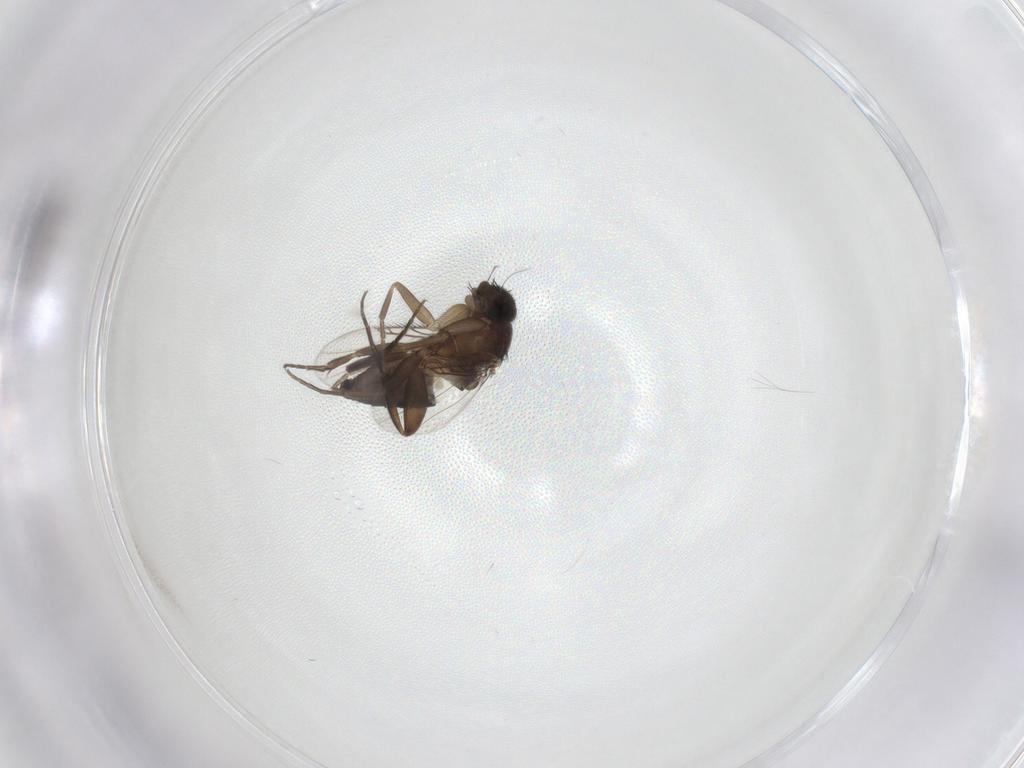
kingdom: Animalia
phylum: Arthropoda
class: Insecta
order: Diptera
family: Phoridae
